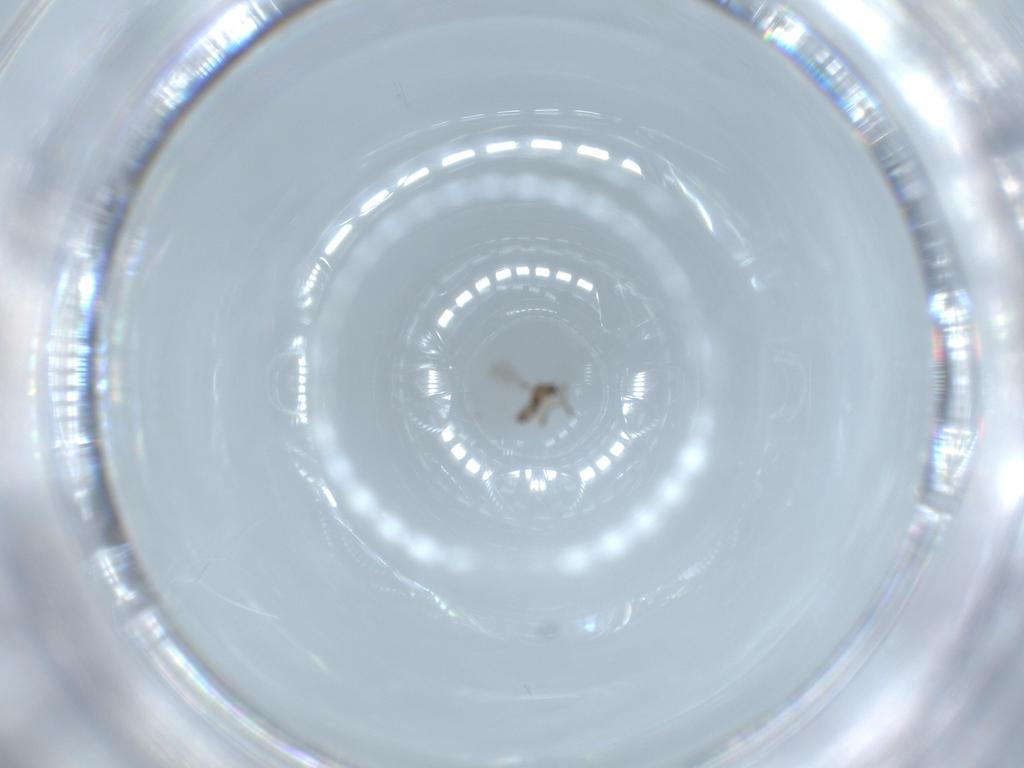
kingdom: Animalia
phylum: Arthropoda
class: Insecta
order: Hymenoptera
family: Formicidae
